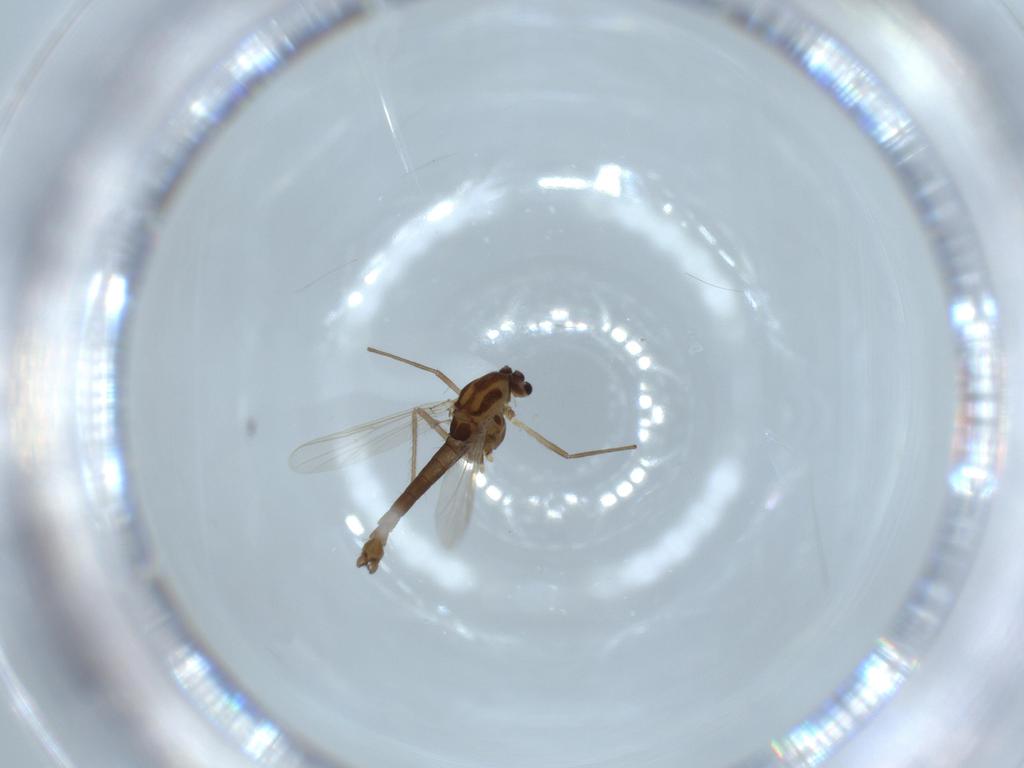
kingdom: Animalia
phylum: Arthropoda
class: Insecta
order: Diptera
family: Chironomidae
